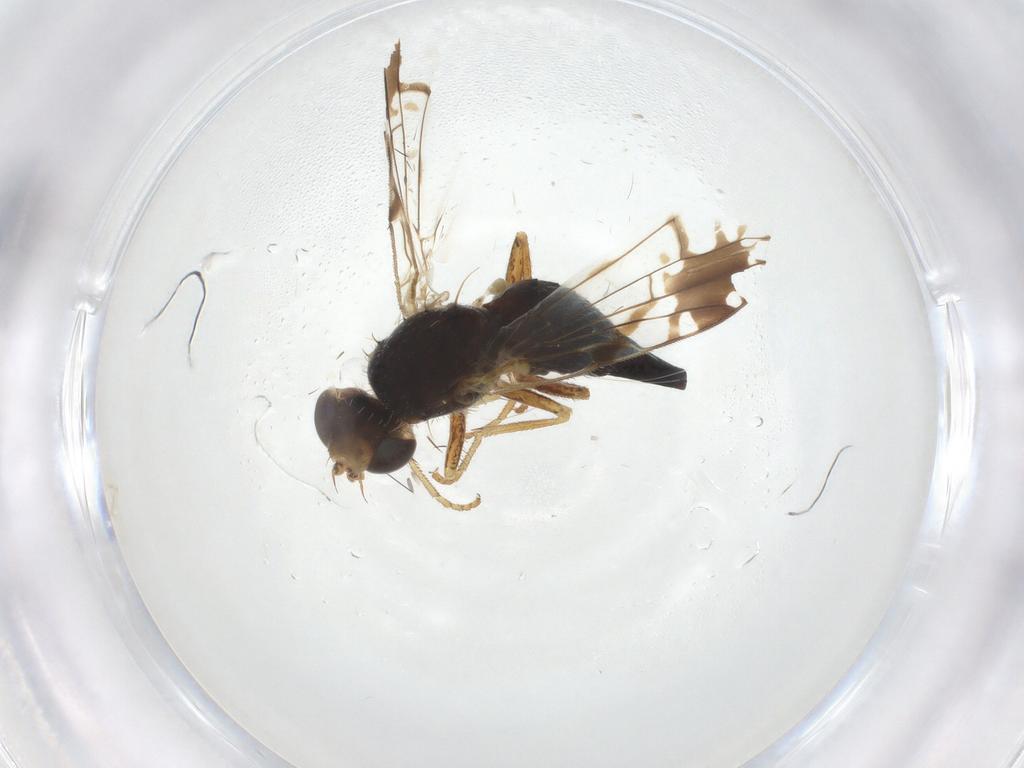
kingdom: Animalia
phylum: Arthropoda
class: Insecta
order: Diptera
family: Tephritidae
